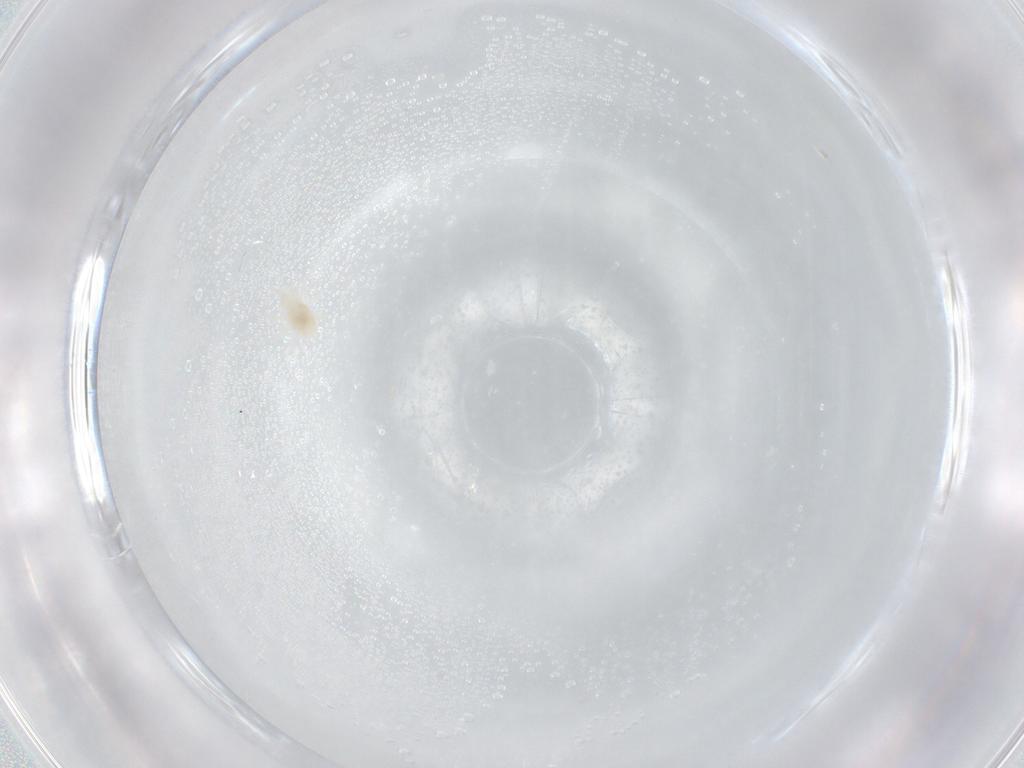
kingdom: Animalia
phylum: Arthropoda
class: Arachnida
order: Mesostigmata
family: Blattisociidae
